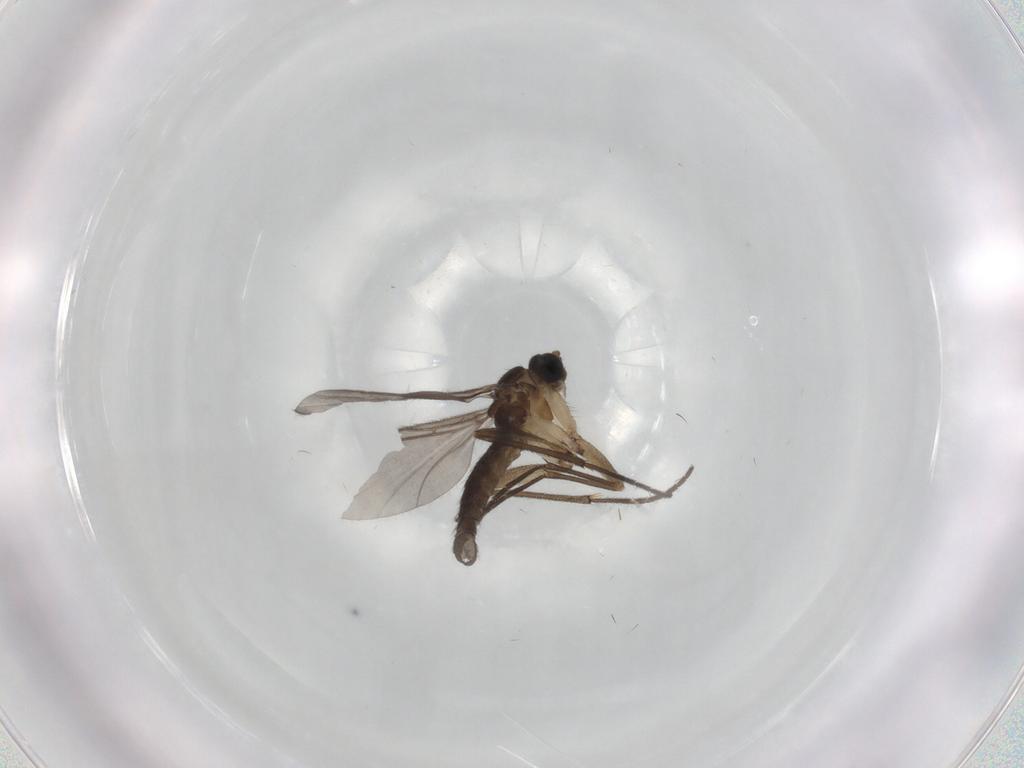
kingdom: Animalia
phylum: Arthropoda
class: Insecta
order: Diptera
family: Sciaridae
